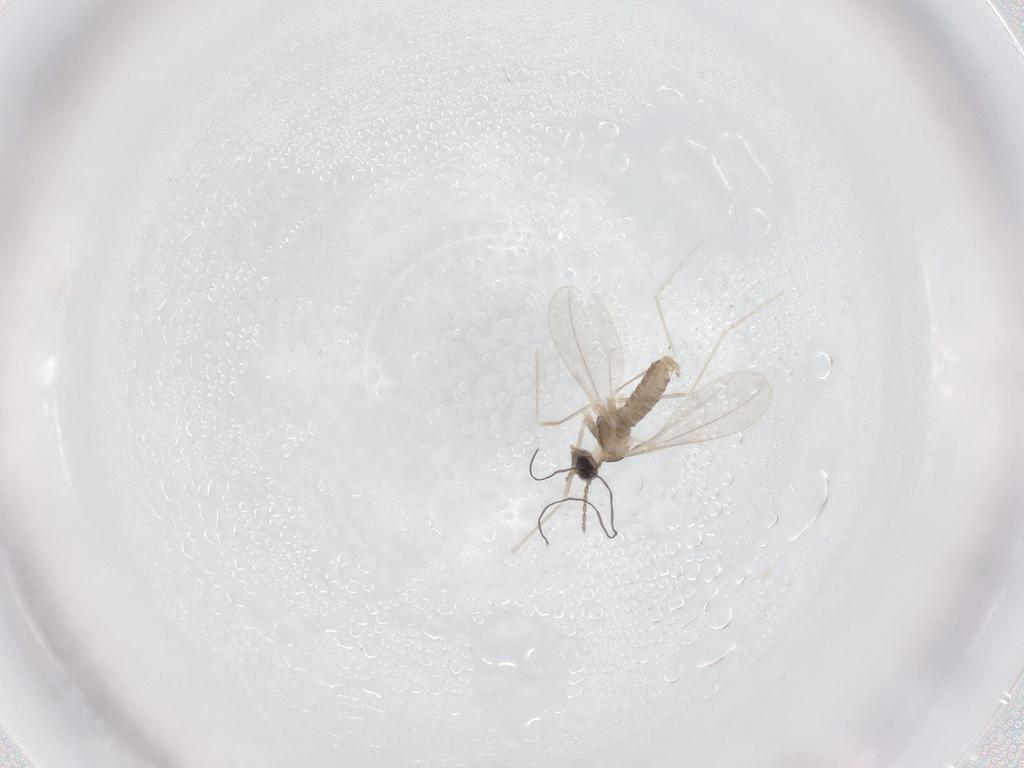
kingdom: Animalia
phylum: Arthropoda
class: Insecta
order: Diptera
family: Cecidomyiidae
